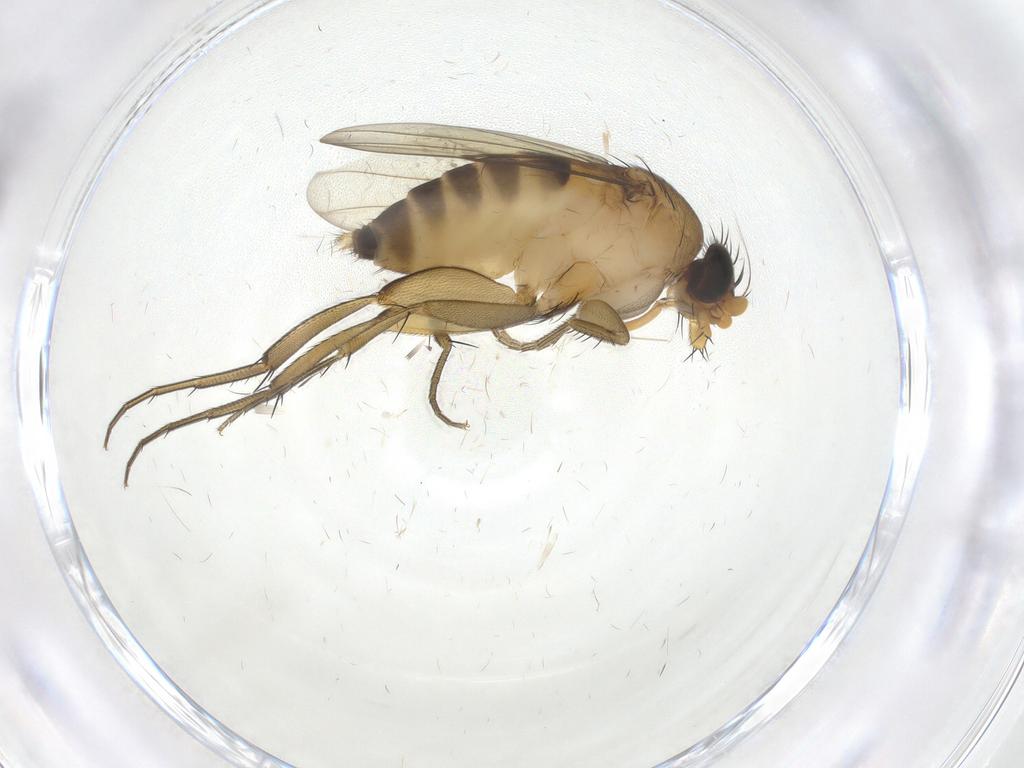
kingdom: Animalia
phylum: Arthropoda
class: Insecta
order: Diptera
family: Phoridae
